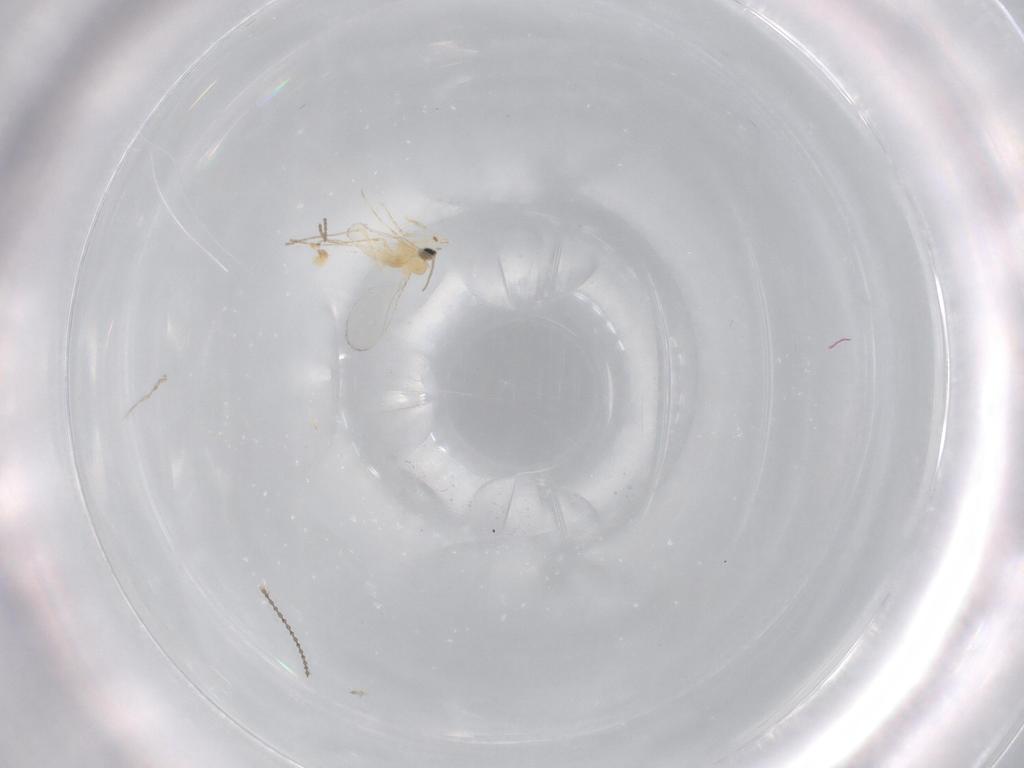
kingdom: Animalia
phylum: Arthropoda
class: Insecta
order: Diptera
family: Cecidomyiidae
